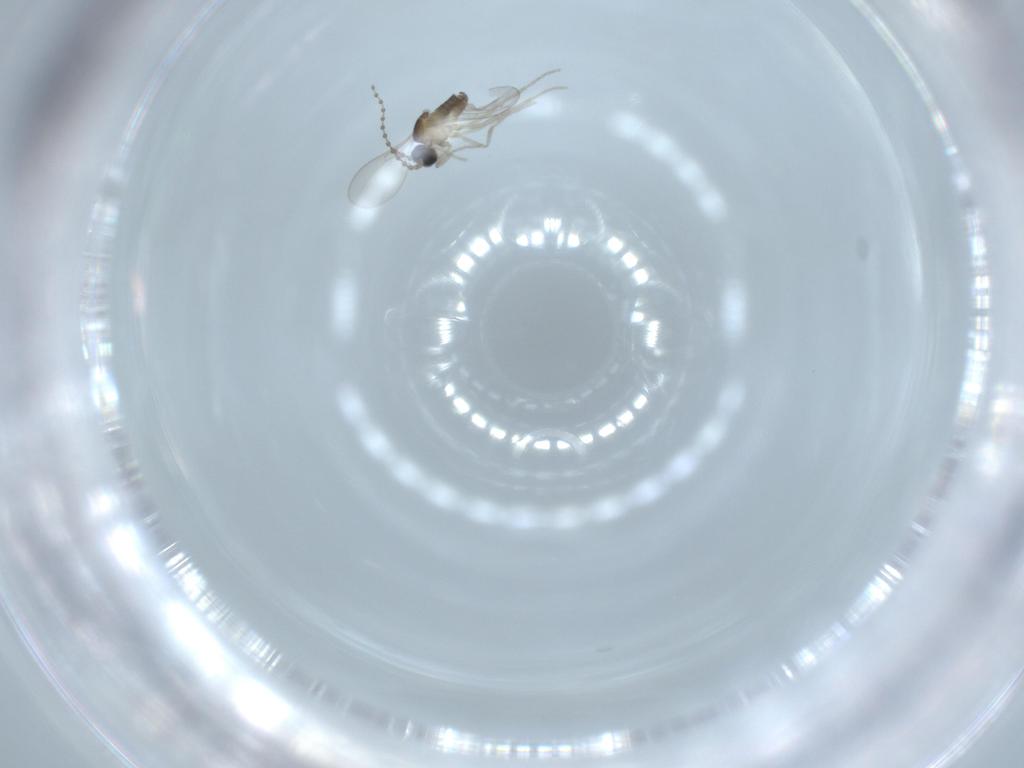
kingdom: Animalia
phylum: Arthropoda
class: Insecta
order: Diptera
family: Cecidomyiidae
